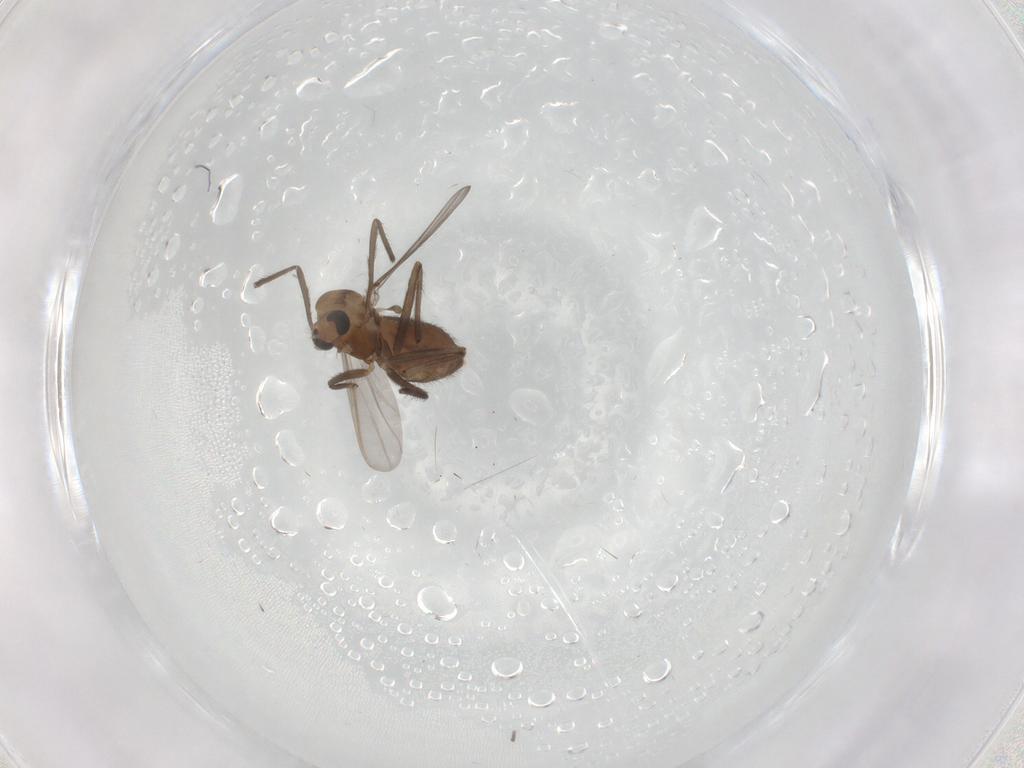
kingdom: Animalia
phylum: Arthropoda
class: Insecta
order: Diptera
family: Chironomidae
